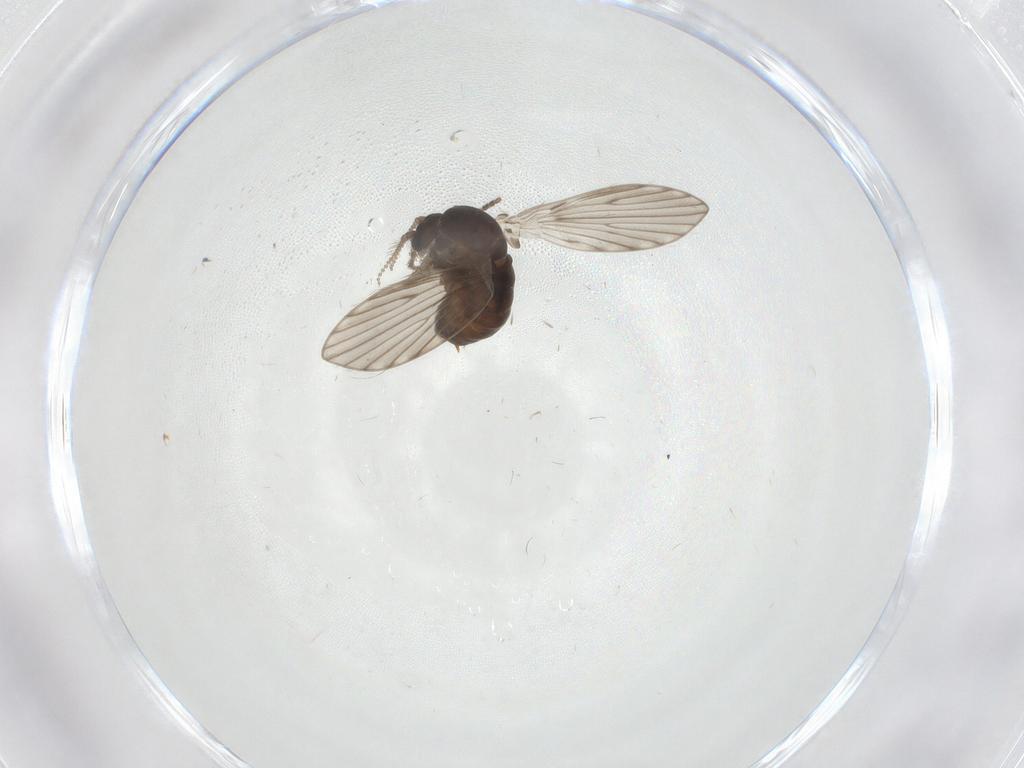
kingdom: Animalia
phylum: Arthropoda
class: Insecta
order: Diptera
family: Psychodidae
